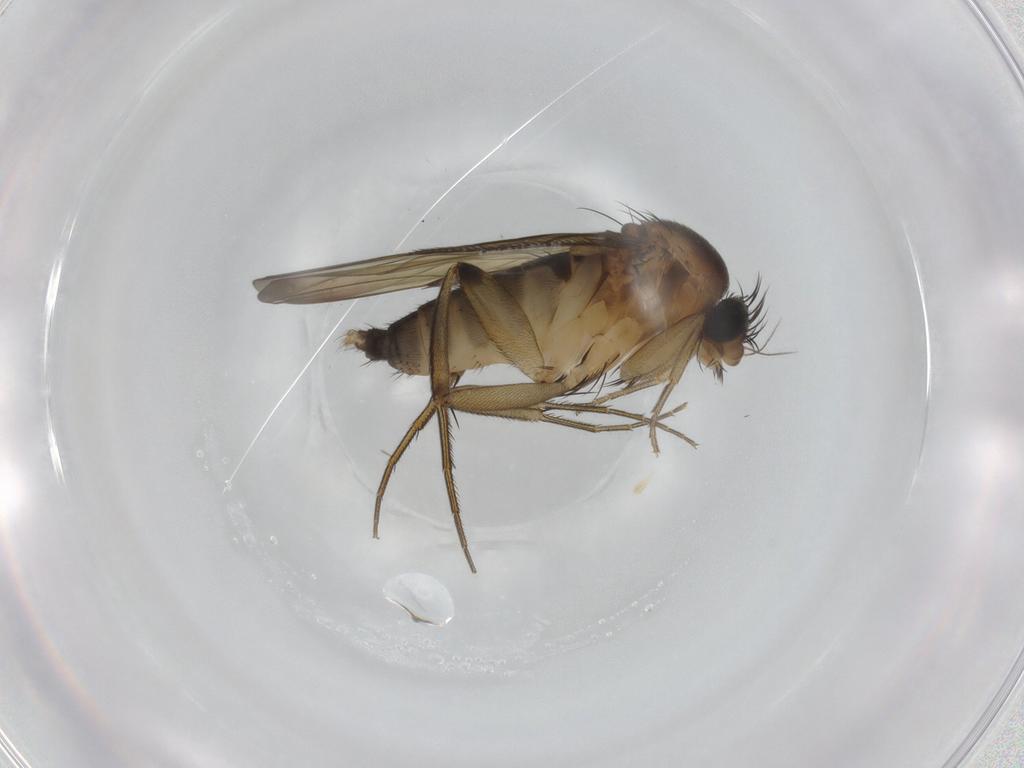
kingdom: Animalia
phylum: Arthropoda
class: Insecta
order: Diptera
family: Phoridae
